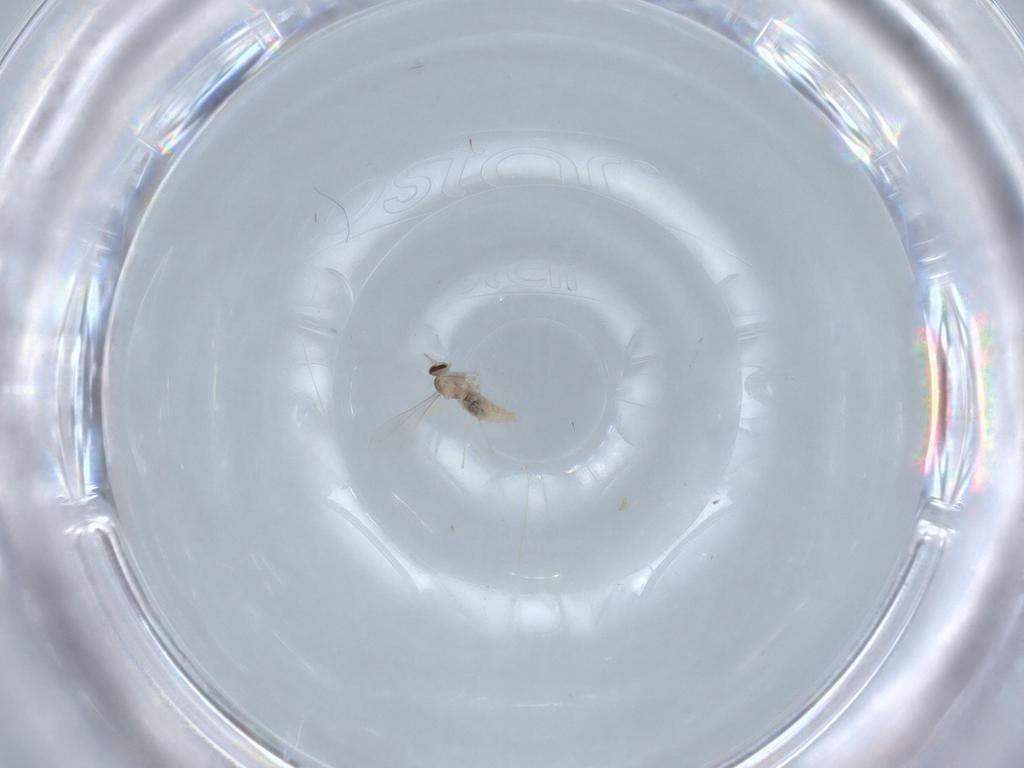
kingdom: Animalia
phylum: Arthropoda
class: Insecta
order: Diptera
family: Cecidomyiidae
